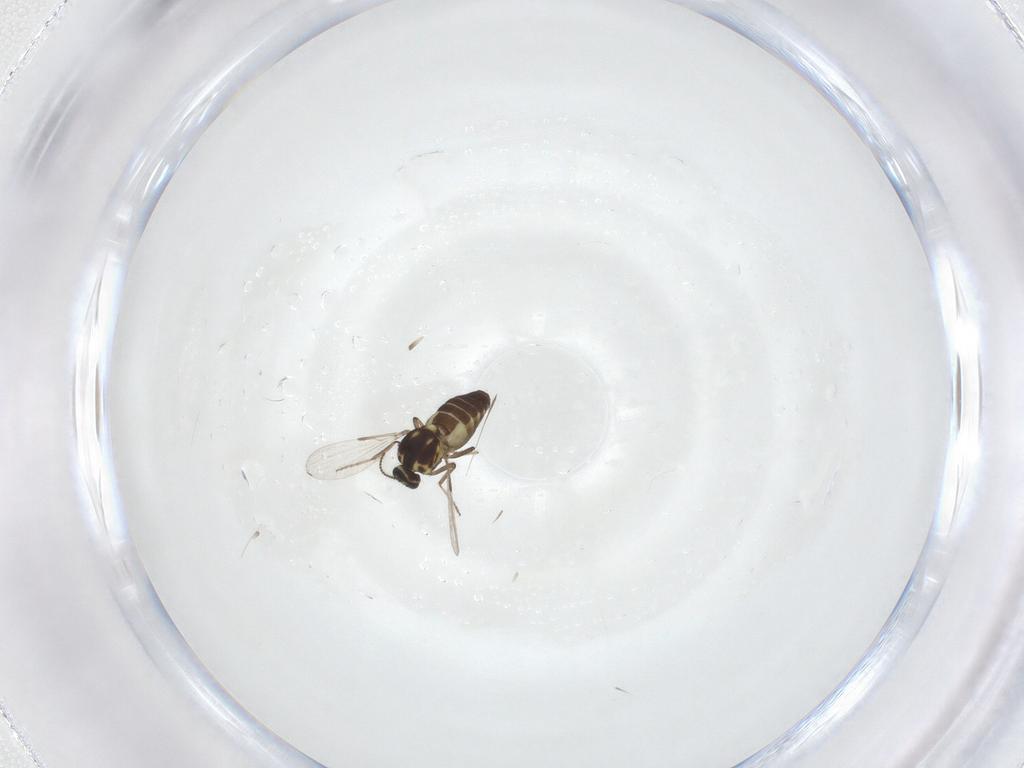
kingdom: Animalia
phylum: Arthropoda
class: Insecta
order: Diptera
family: Ceratopogonidae
